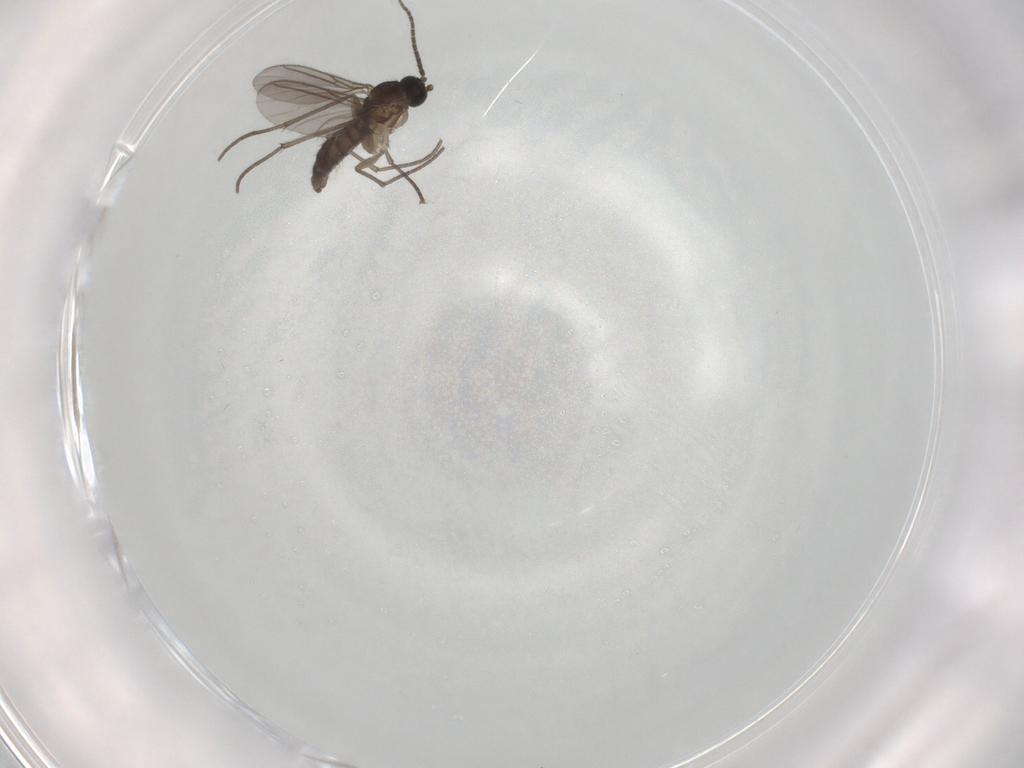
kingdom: Animalia
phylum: Arthropoda
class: Insecta
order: Diptera
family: Sciaridae
